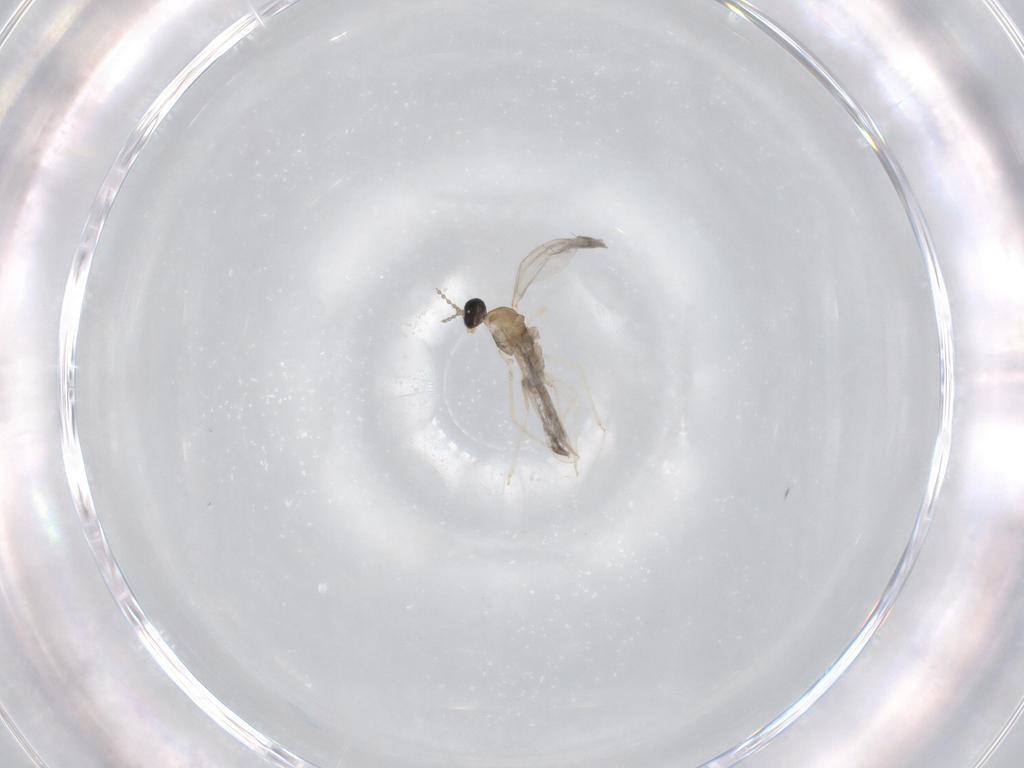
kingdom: Animalia
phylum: Arthropoda
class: Insecta
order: Diptera
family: Cecidomyiidae
